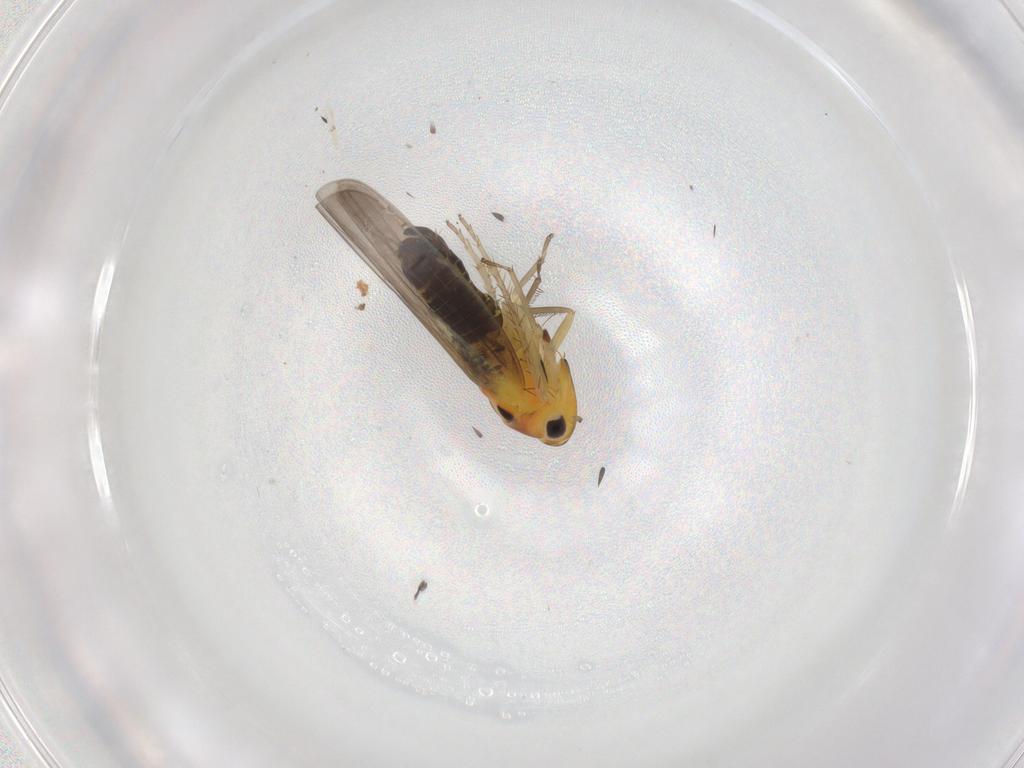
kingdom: Animalia
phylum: Arthropoda
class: Insecta
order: Hemiptera
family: Cicadellidae
